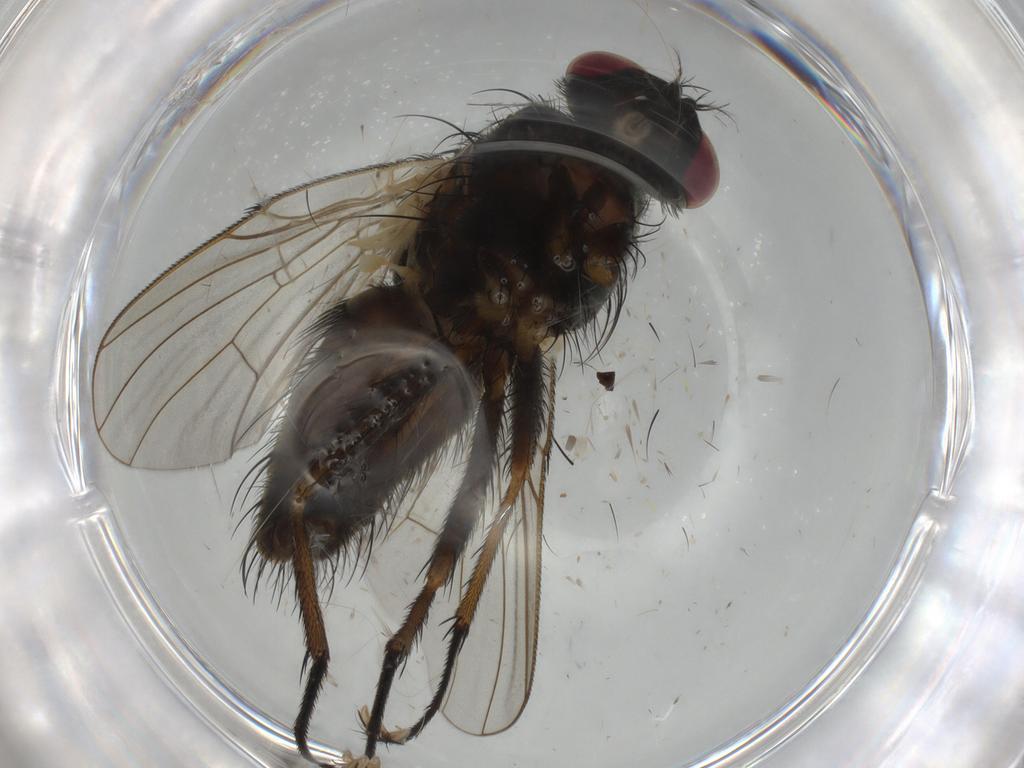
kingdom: Animalia
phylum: Arthropoda
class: Insecta
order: Diptera
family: Muscidae
